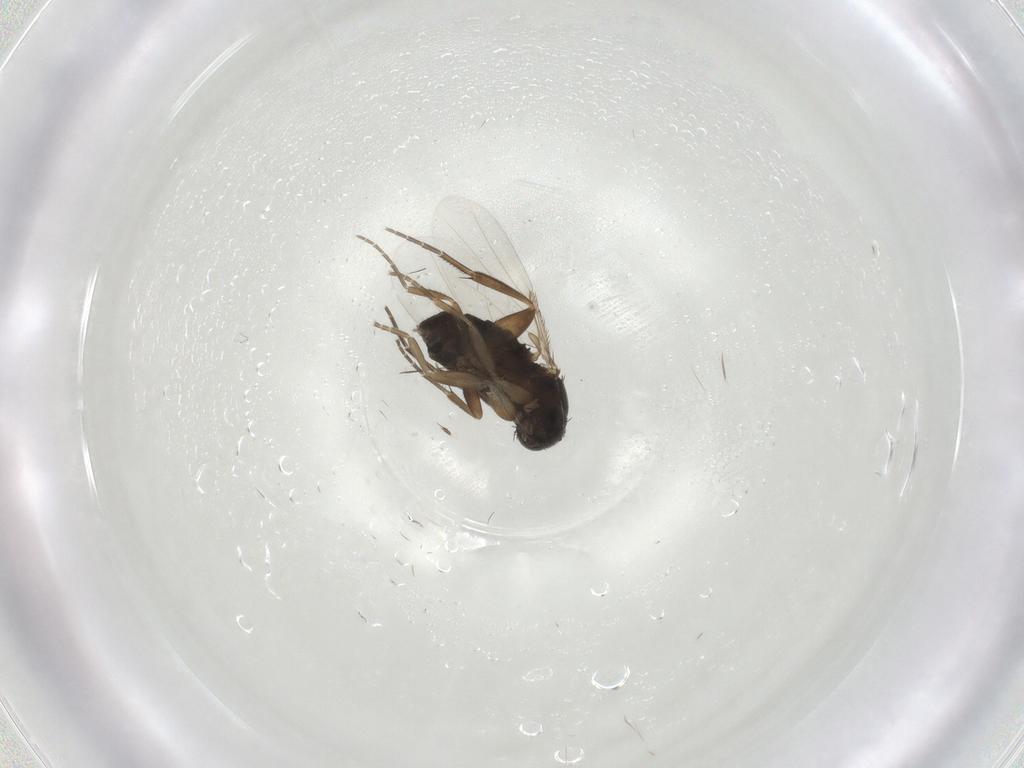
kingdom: Animalia
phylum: Arthropoda
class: Insecta
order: Diptera
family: Phoridae
